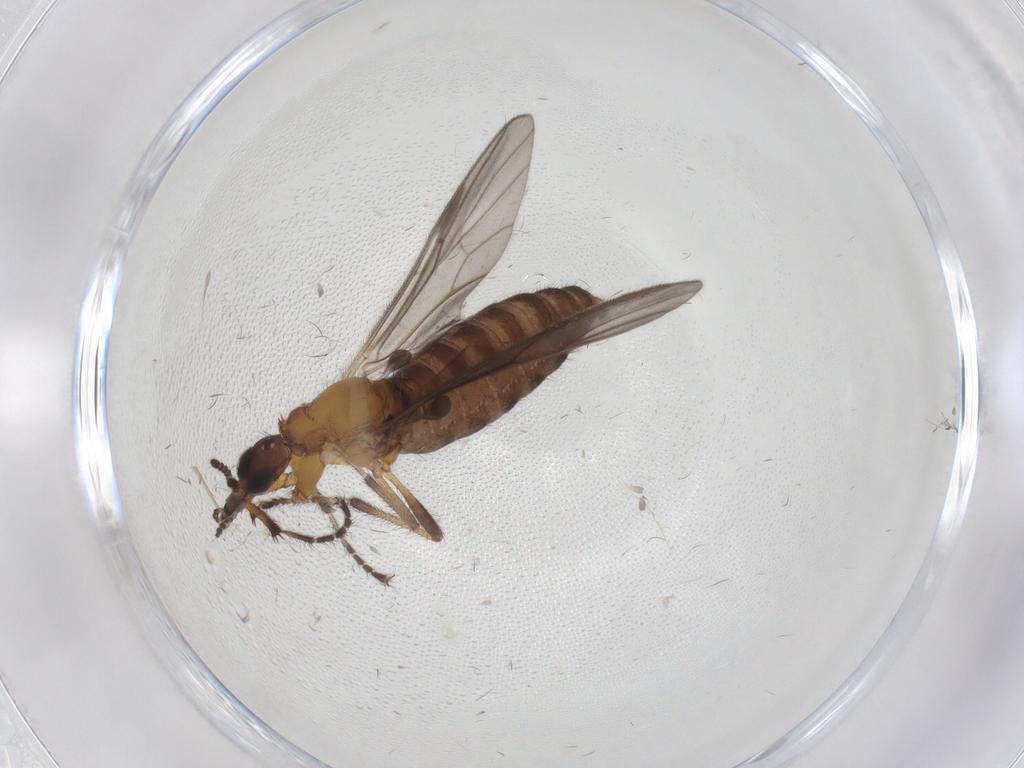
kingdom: Animalia
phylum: Arthropoda
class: Insecta
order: Diptera
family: Bibionidae
